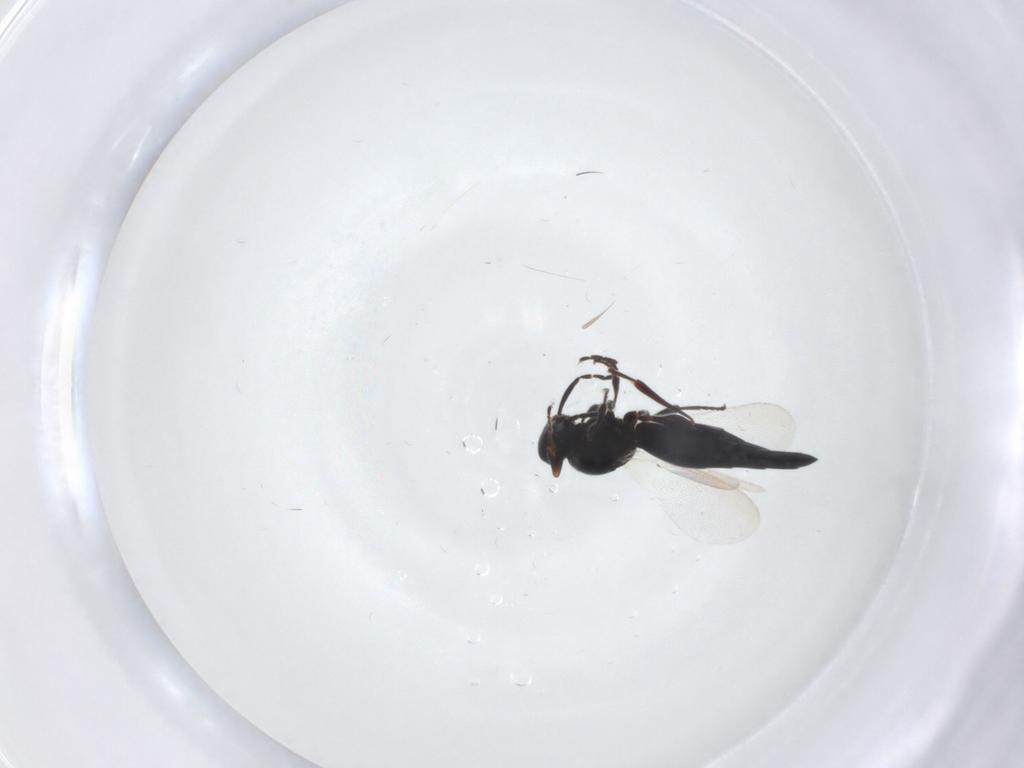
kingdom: Animalia
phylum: Arthropoda
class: Insecta
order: Hymenoptera
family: Platygastridae
